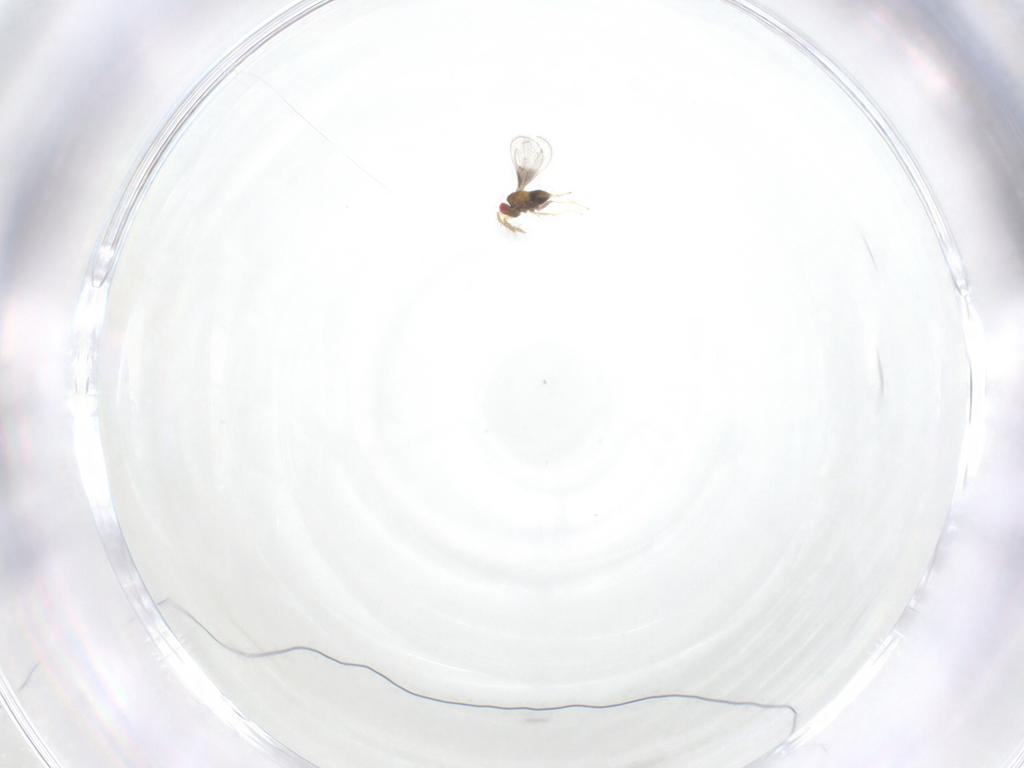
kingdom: Animalia
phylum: Arthropoda
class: Insecta
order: Hymenoptera
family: Trichogrammatidae
